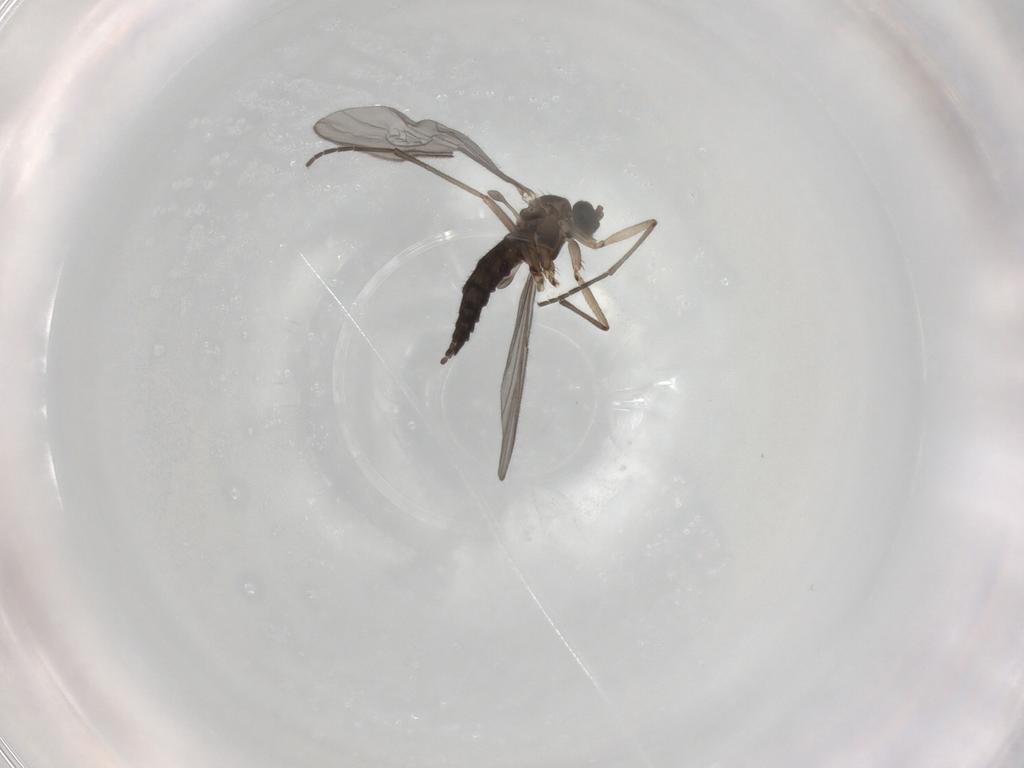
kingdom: Animalia
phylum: Arthropoda
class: Insecta
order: Diptera
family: Sciaridae
